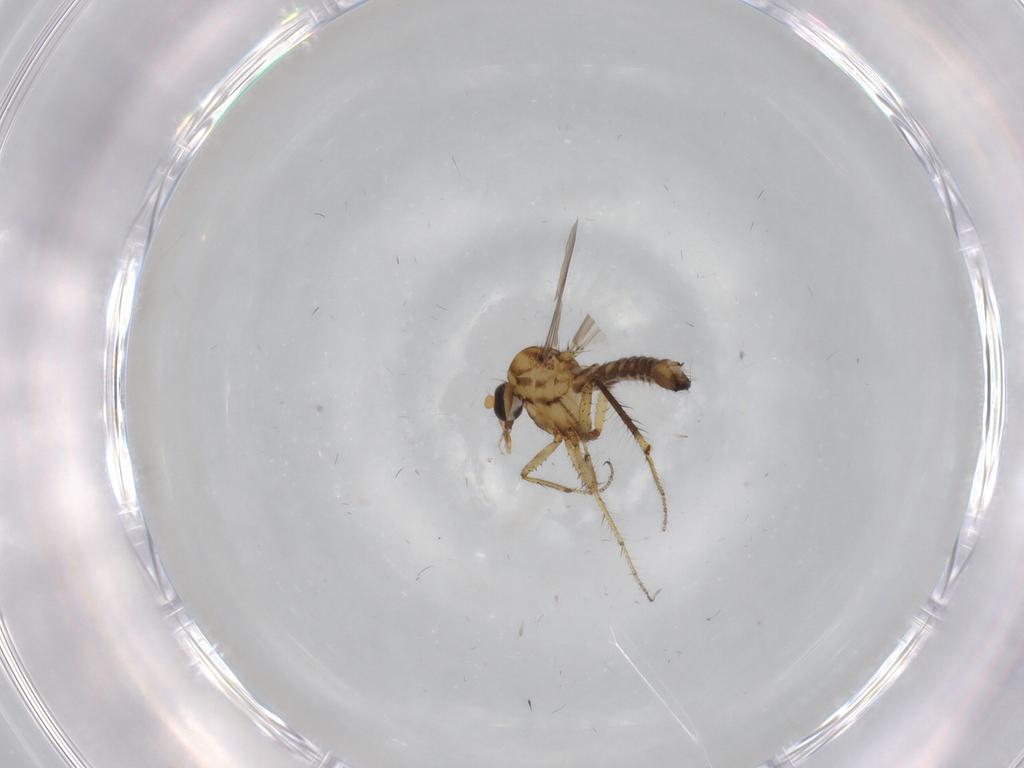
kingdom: Animalia
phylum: Arthropoda
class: Insecta
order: Diptera
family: Ceratopogonidae
